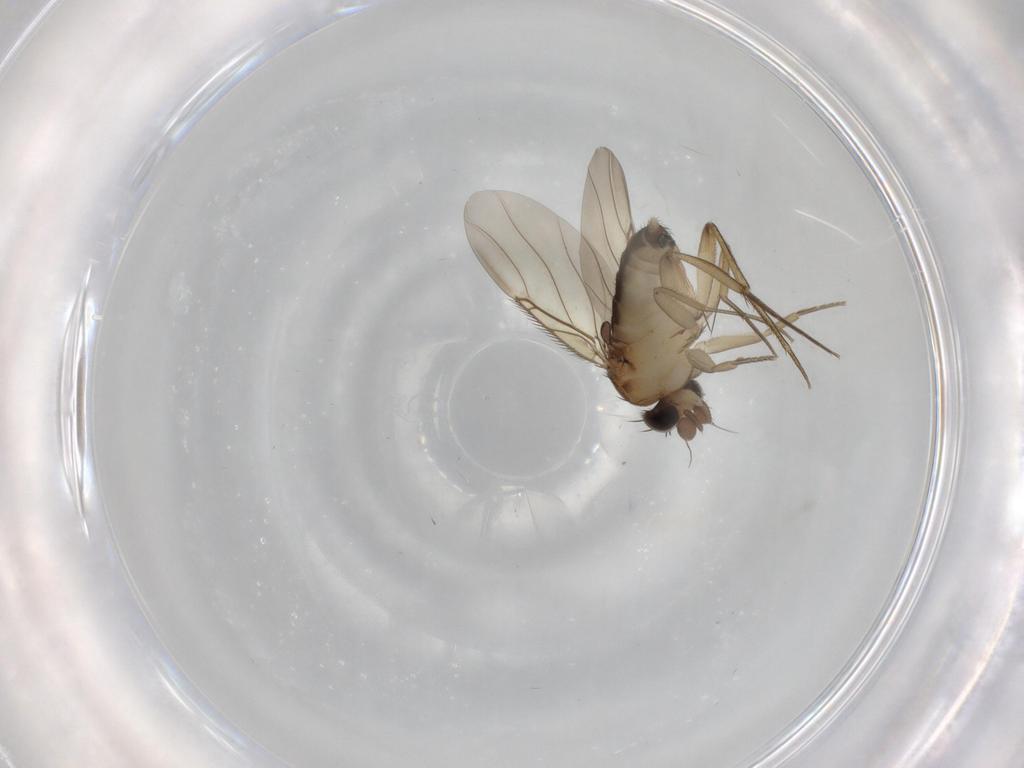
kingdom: Animalia
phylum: Arthropoda
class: Insecta
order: Diptera
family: Phoridae
